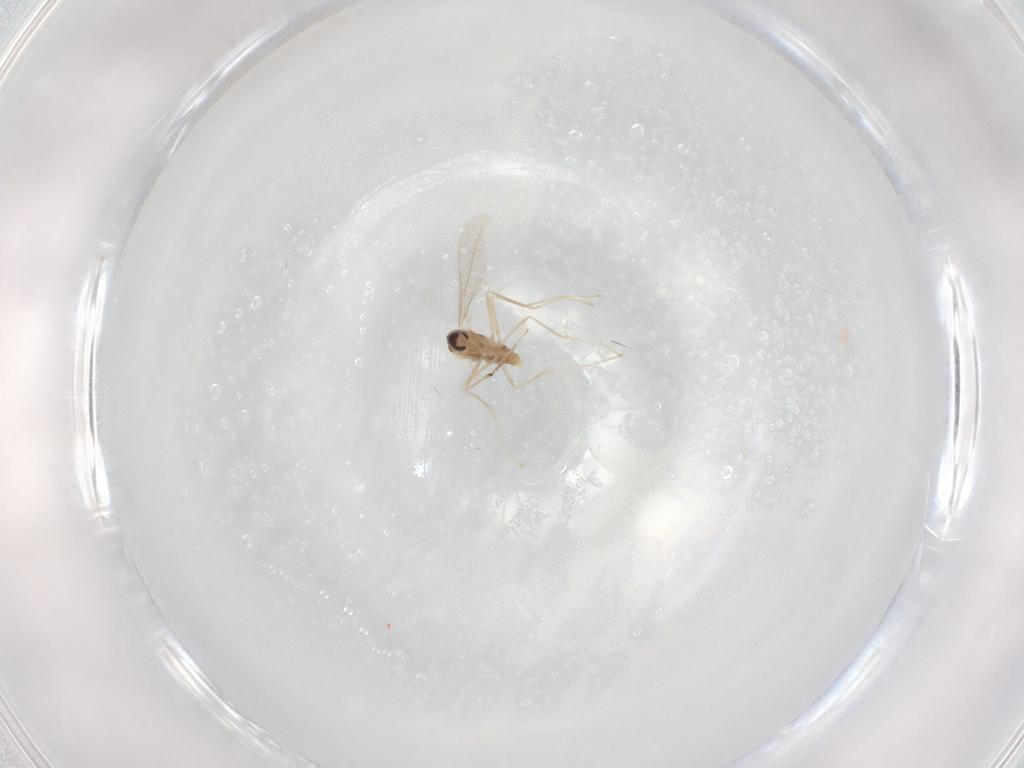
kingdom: Animalia
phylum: Arthropoda
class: Insecta
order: Diptera
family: Cecidomyiidae
